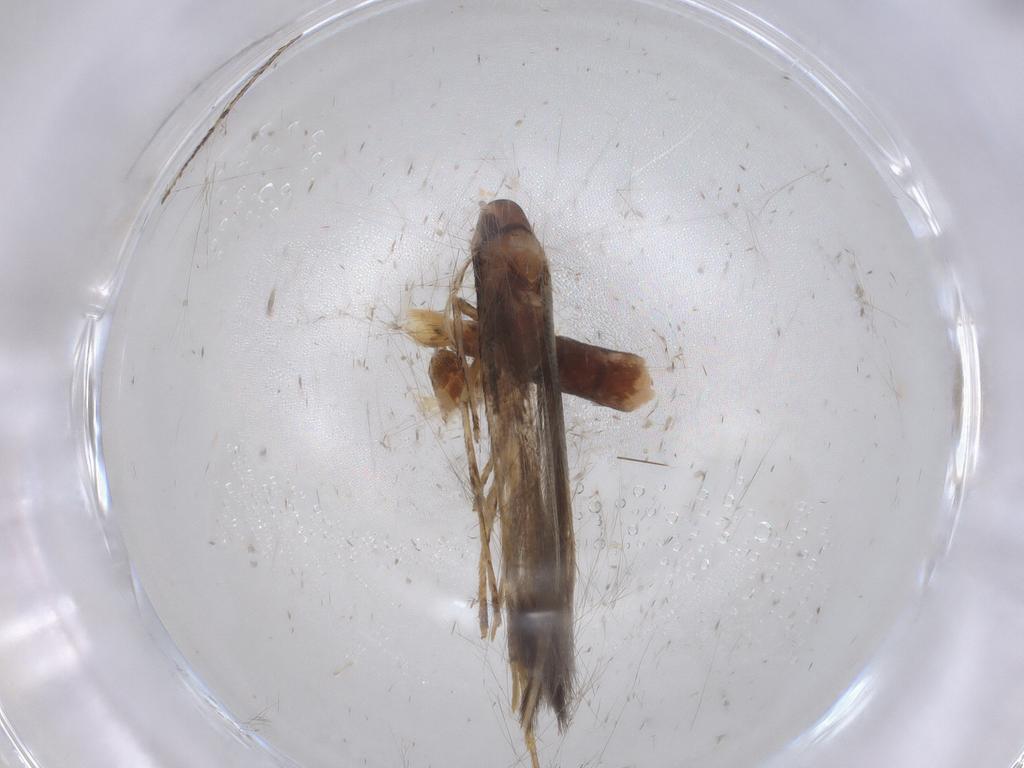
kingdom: Animalia
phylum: Arthropoda
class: Insecta
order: Lepidoptera
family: Cosmopterigidae
